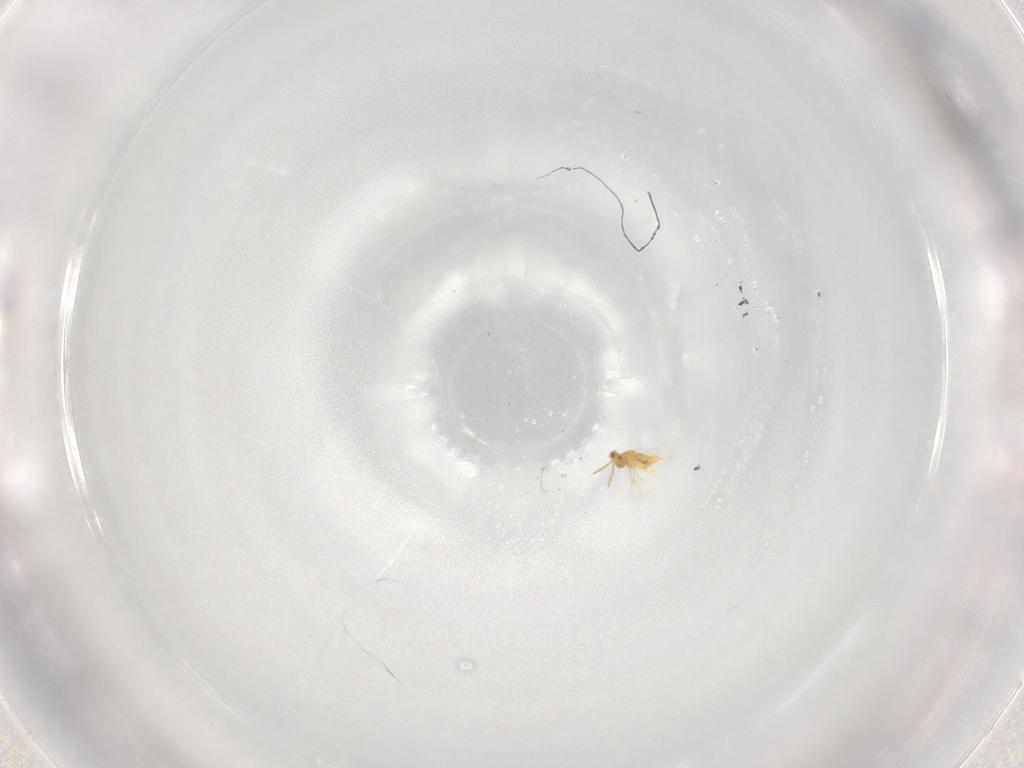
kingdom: Animalia
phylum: Arthropoda
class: Insecta
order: Hymenoptera
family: Aphelinidae
